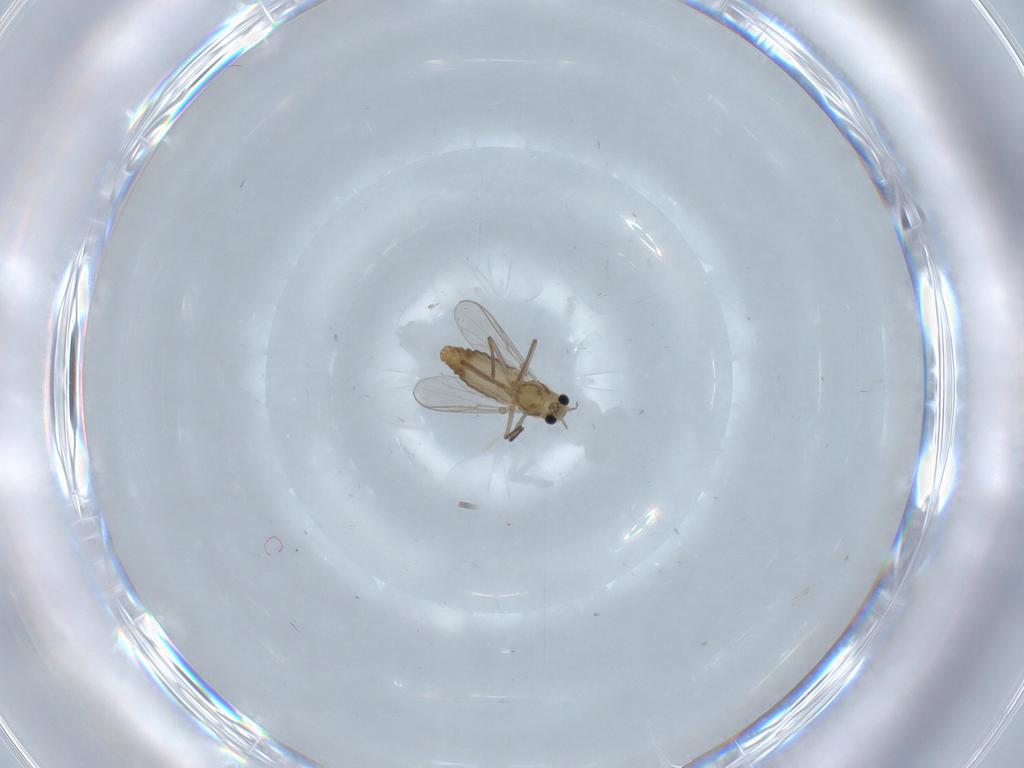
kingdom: Animalia
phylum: Arthropoda
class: Insecta
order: Diptera
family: Chironomidae
